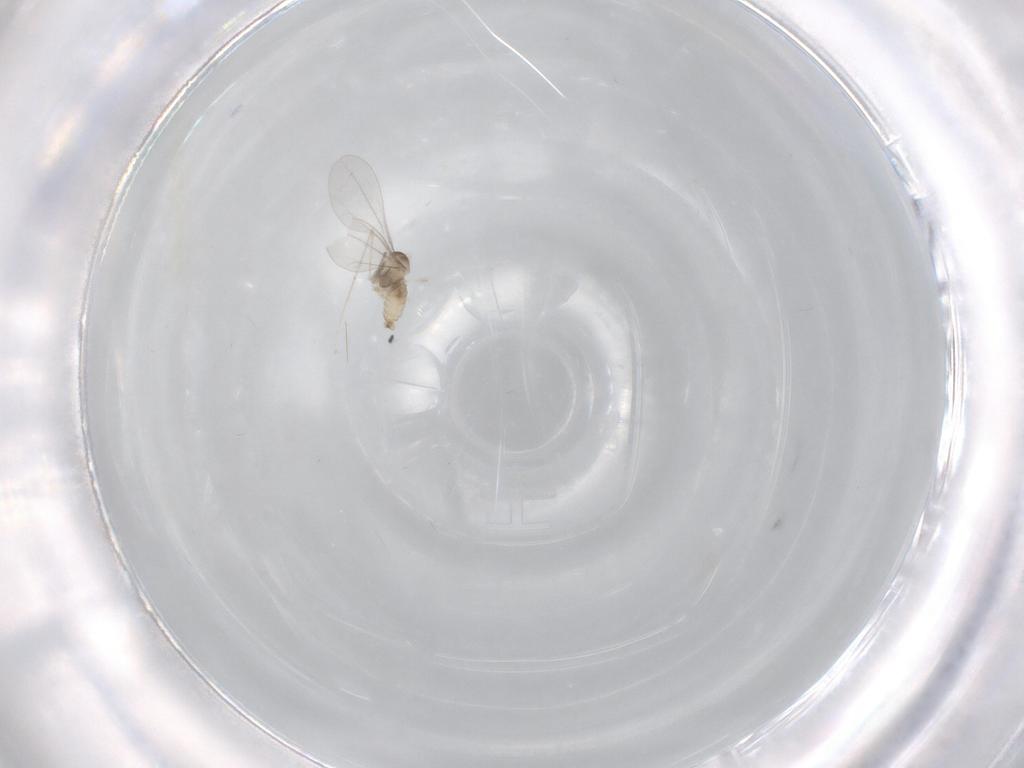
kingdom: Animalia
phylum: Arthropoda
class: Insecta
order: Diptera
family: Cecidomyiidae
